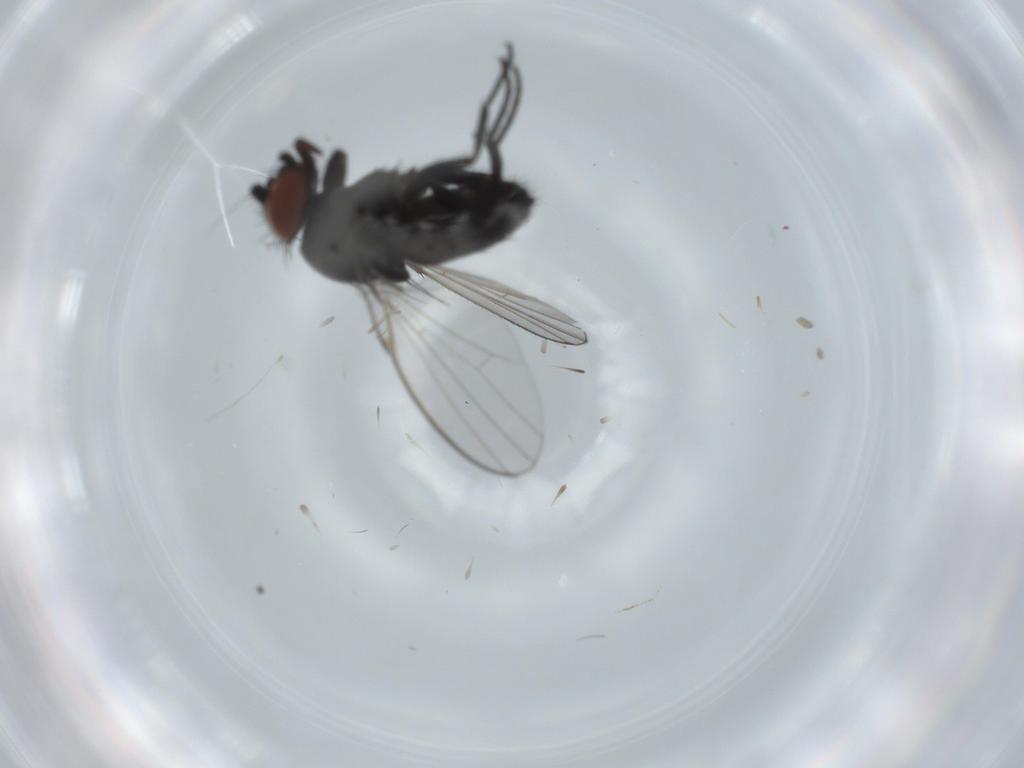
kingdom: Animalia
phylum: Arthropoda
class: Insecta
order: Diptera
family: Milichiidae
